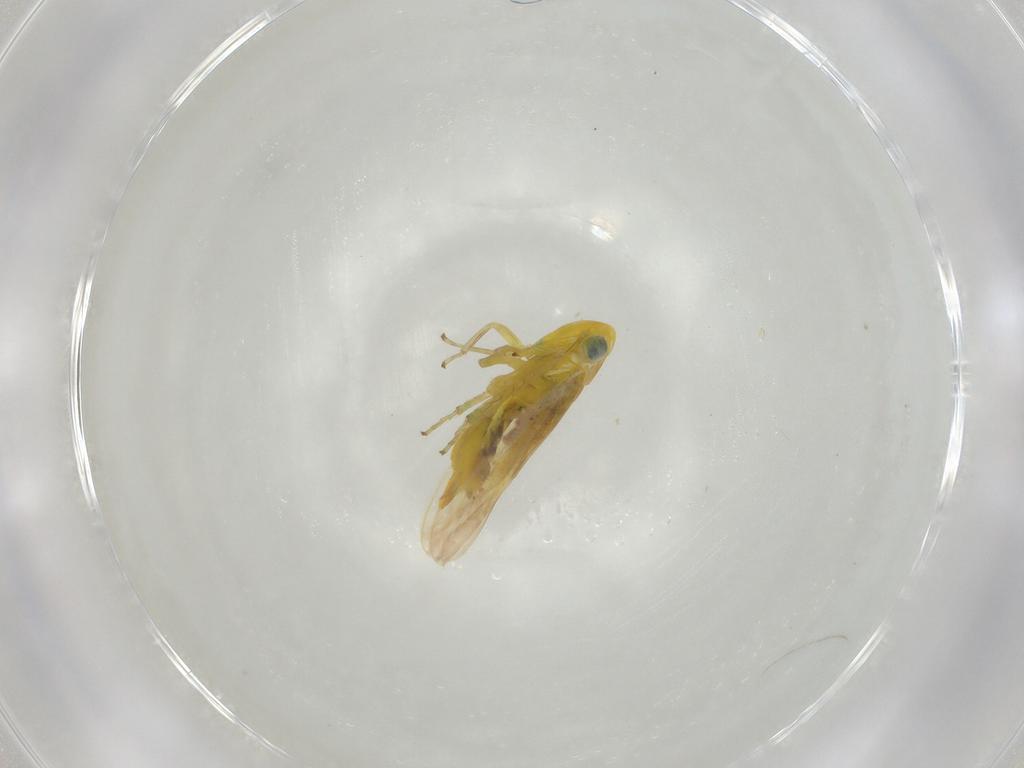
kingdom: Animalia
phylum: Arthropoda
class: Insecta
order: Hemiptera
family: Cicadellidae
